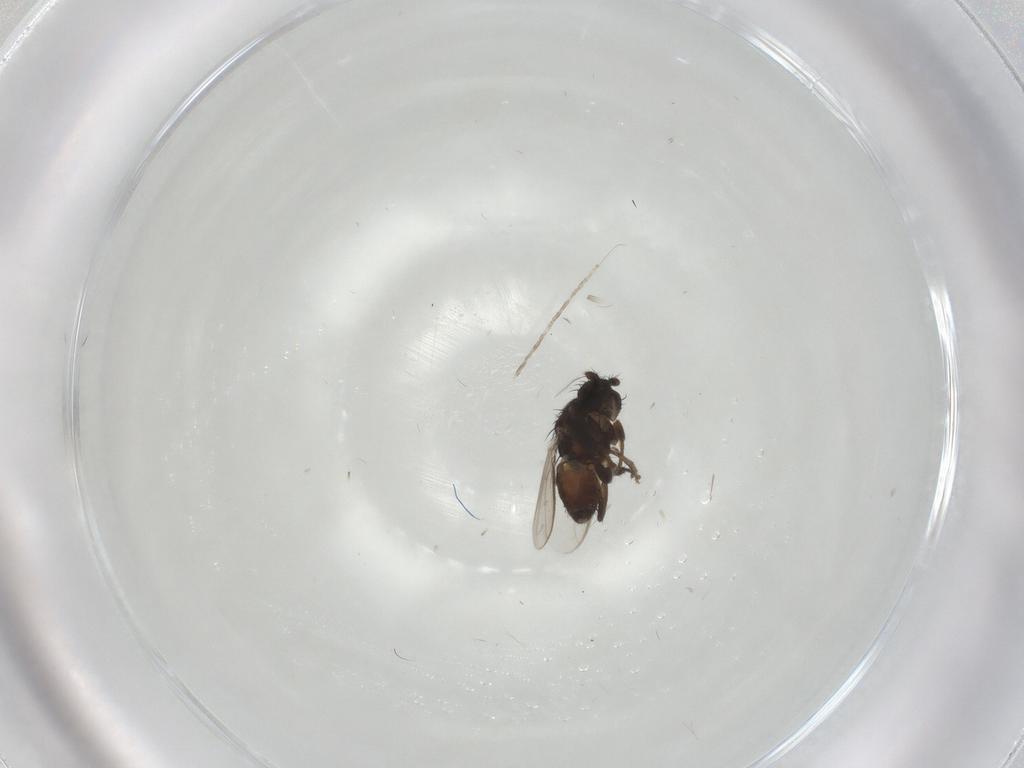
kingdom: Animalia
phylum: Arthropoda
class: Insecta
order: Diptera
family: Sphaeroceridae
